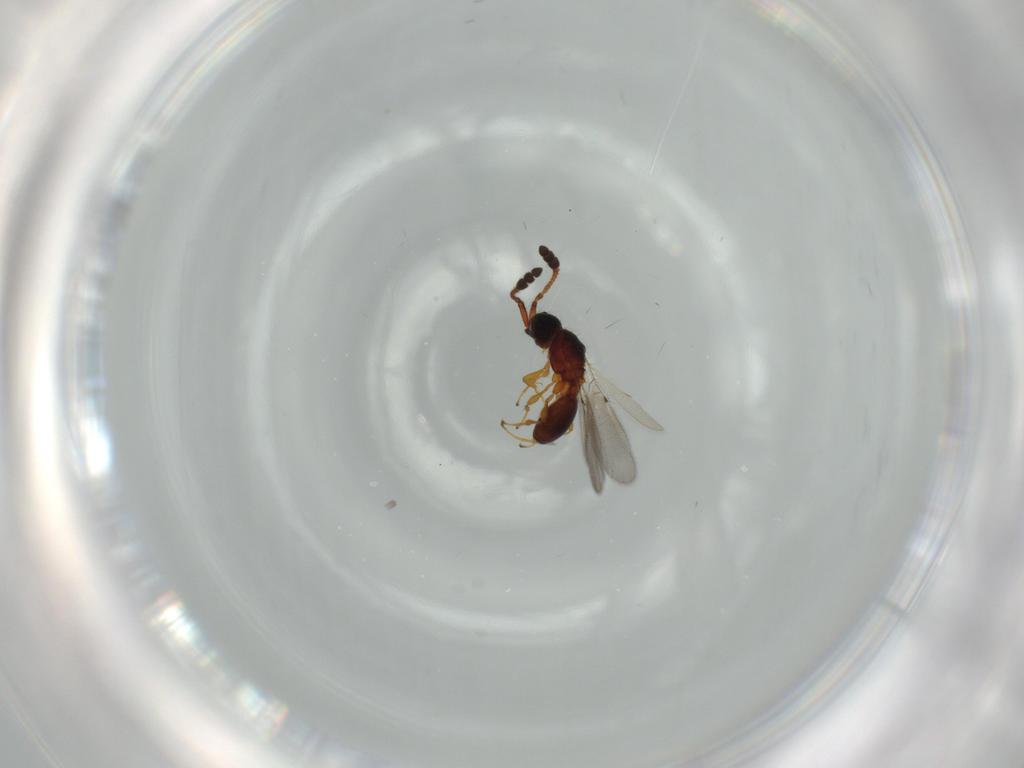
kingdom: Animalia
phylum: Arthropoda
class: Insecta
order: Hymenoptera
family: Diapriidae
